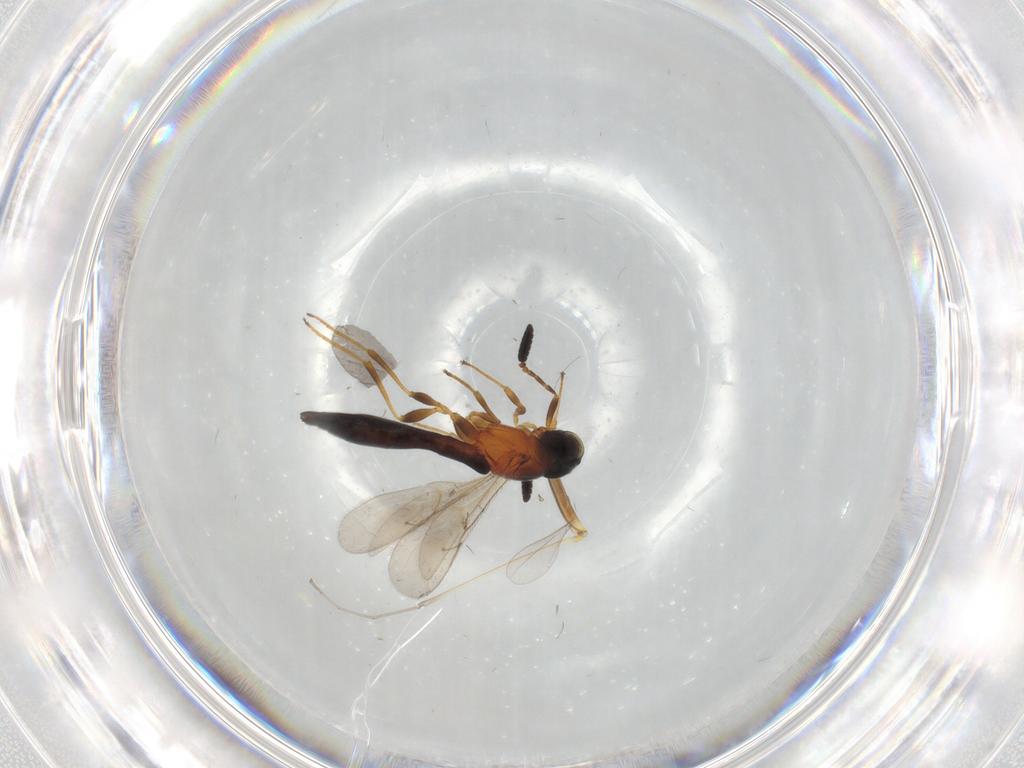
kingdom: Animalia
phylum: Arthropoda
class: Insecta
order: Hymenoptera
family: Scelionidae
